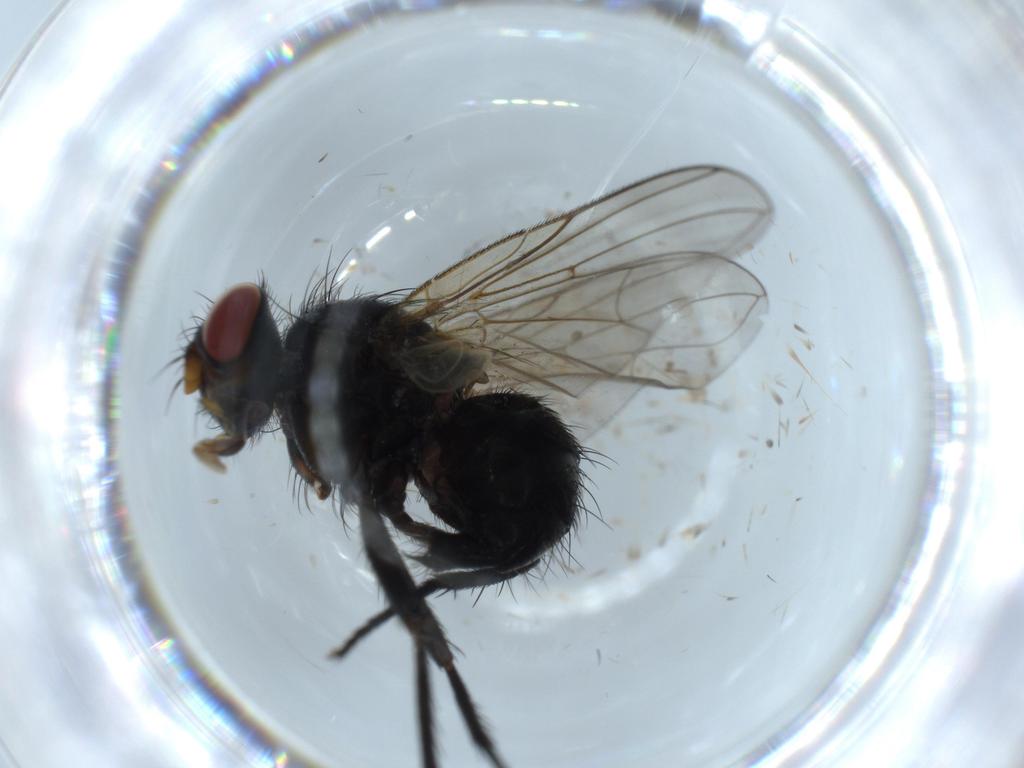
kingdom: Animalia
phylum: Arthropoda
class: Insecta
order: Diptera
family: Tachinidae
